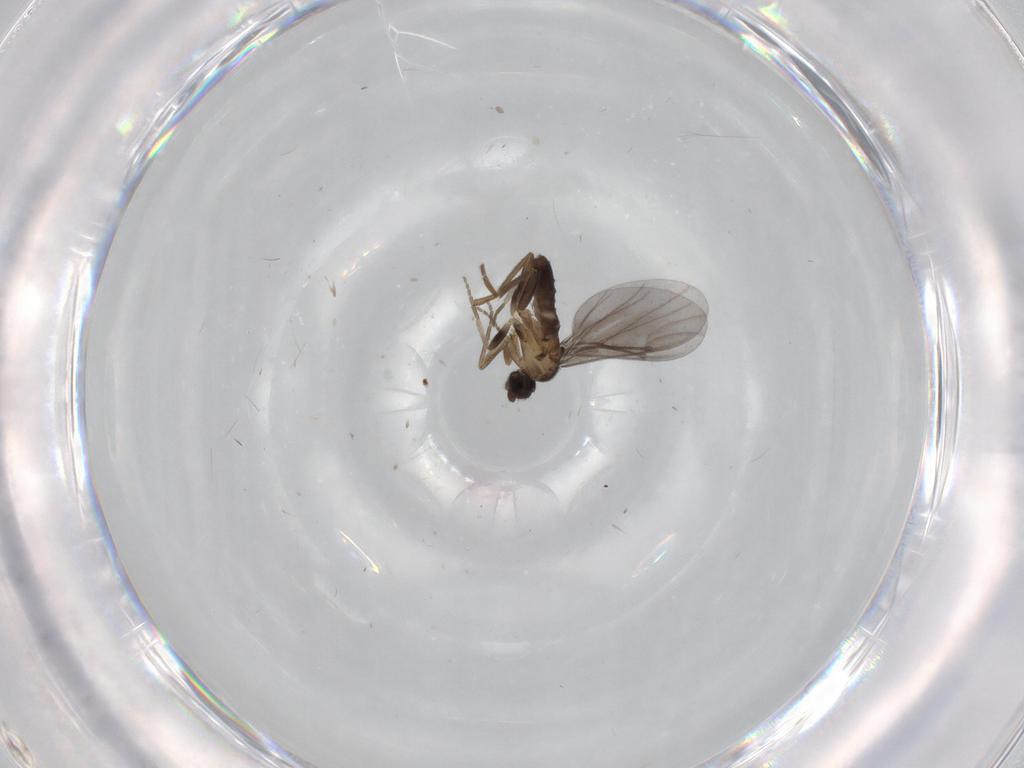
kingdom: Animalia
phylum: Arthropoda
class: Insecta
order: Diptera
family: Phoridae
